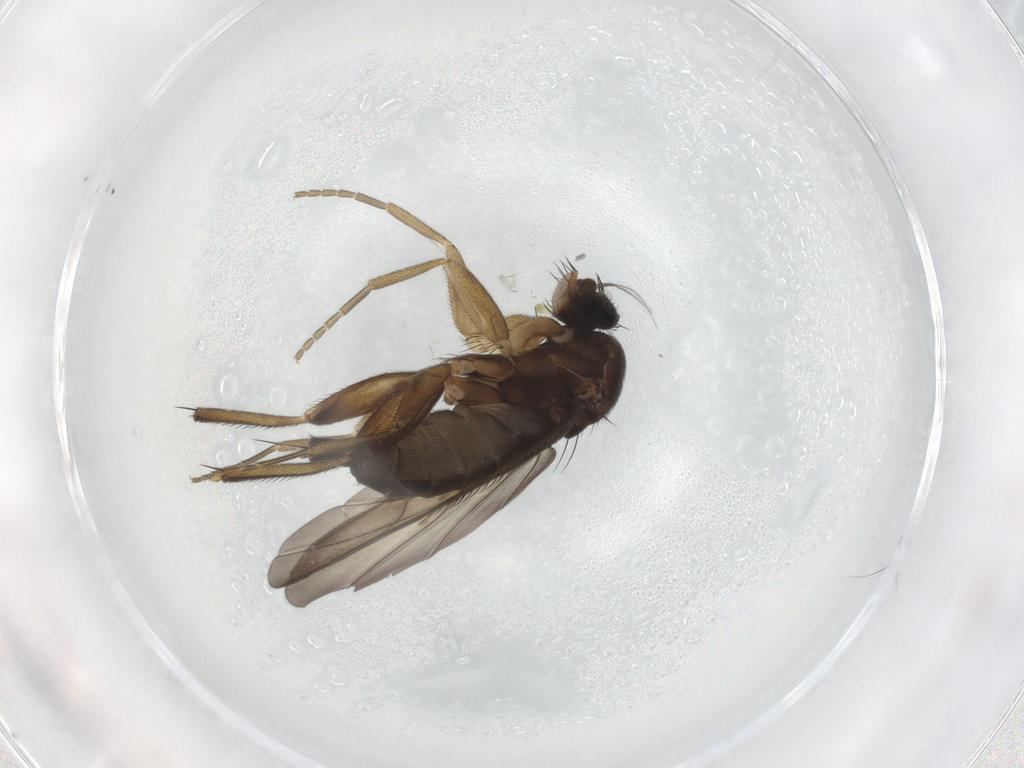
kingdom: Animalia
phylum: Arthropoda
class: Insecta
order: Diptera
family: Phoridae
